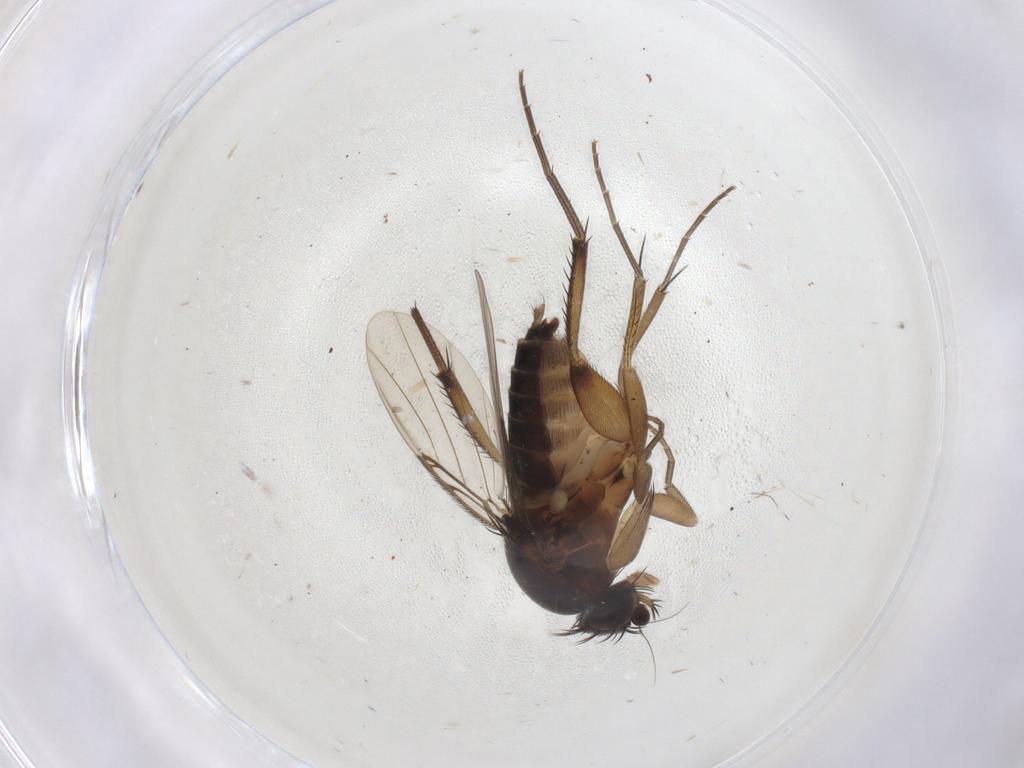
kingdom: Animalia
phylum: Arthropoda
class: Insecta
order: Diptera
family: Phoridae
